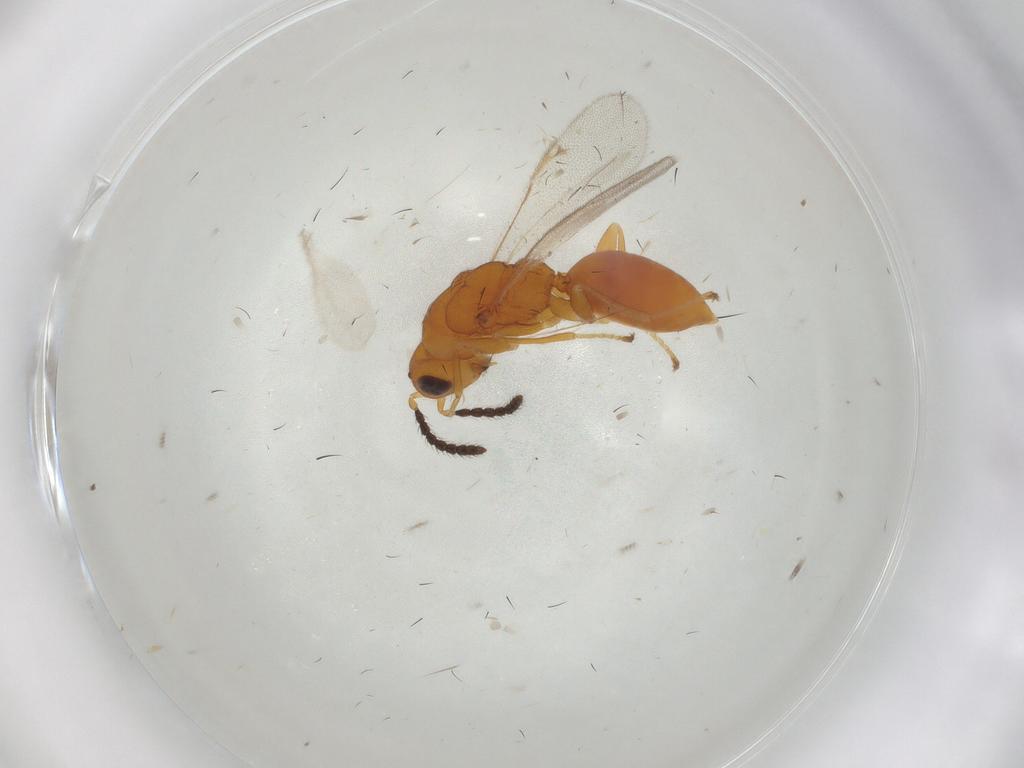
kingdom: Animalia
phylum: Arthropoda
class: Insecta
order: Hymenoptera
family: Eurytomidae
